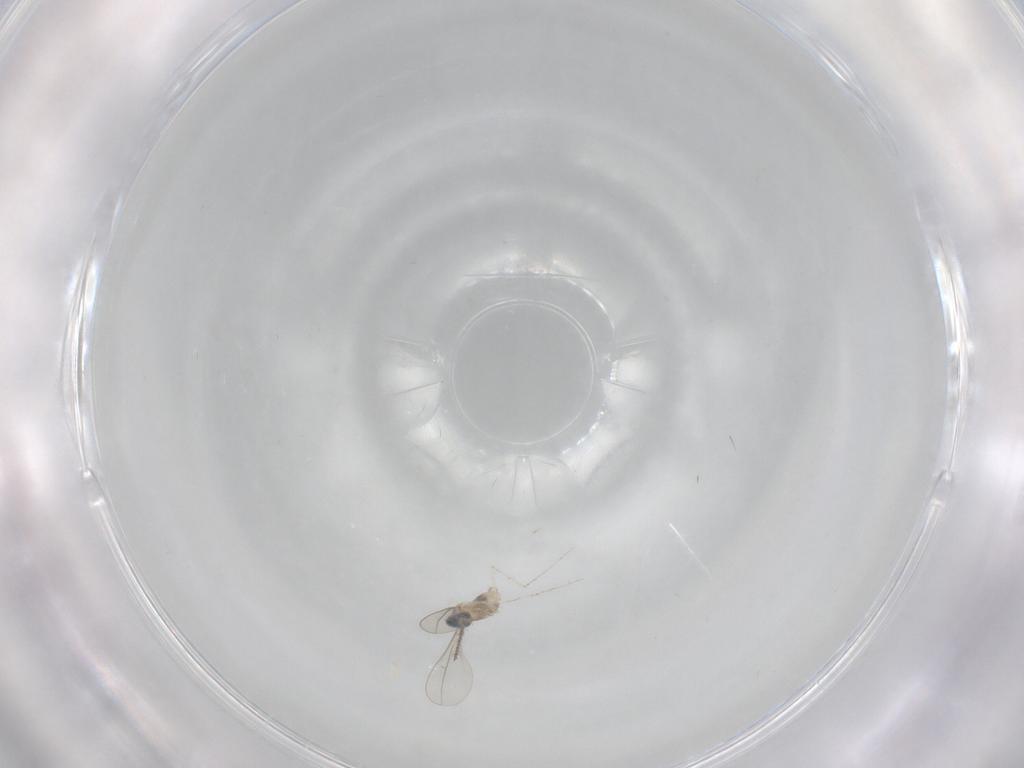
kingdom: Animalia
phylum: Arthropoda
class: Insecta
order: Diptera
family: Cecidomyiidae
